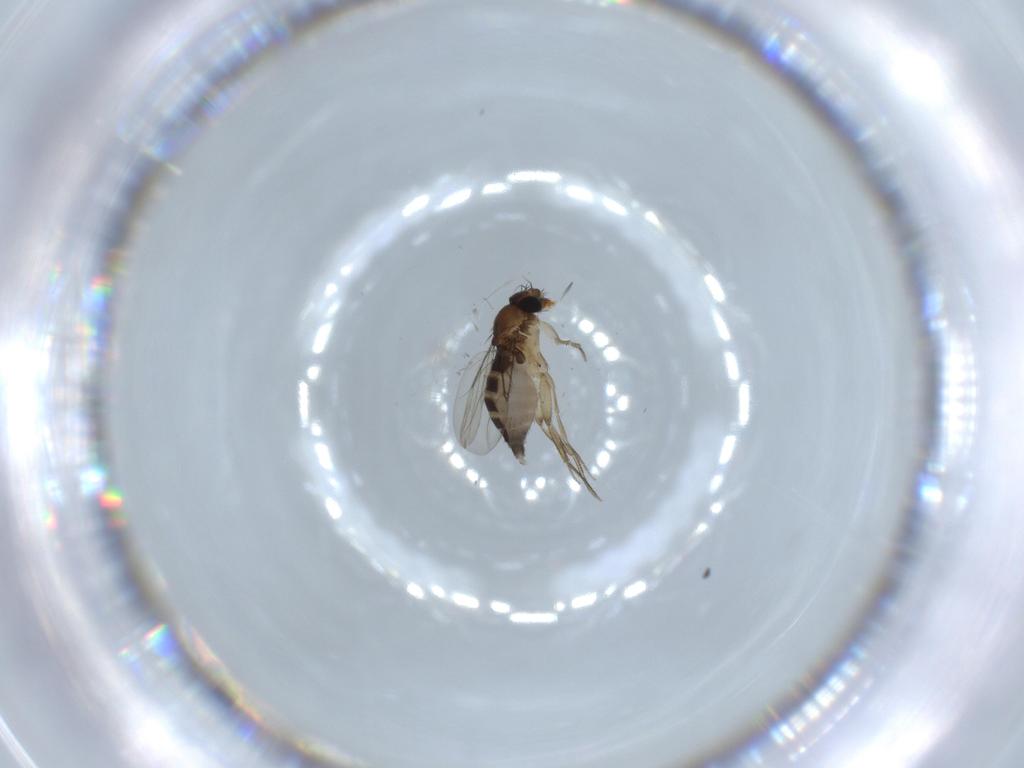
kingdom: Animalia
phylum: Arthropoda
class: Insecta
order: Diptera
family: Phoridae
